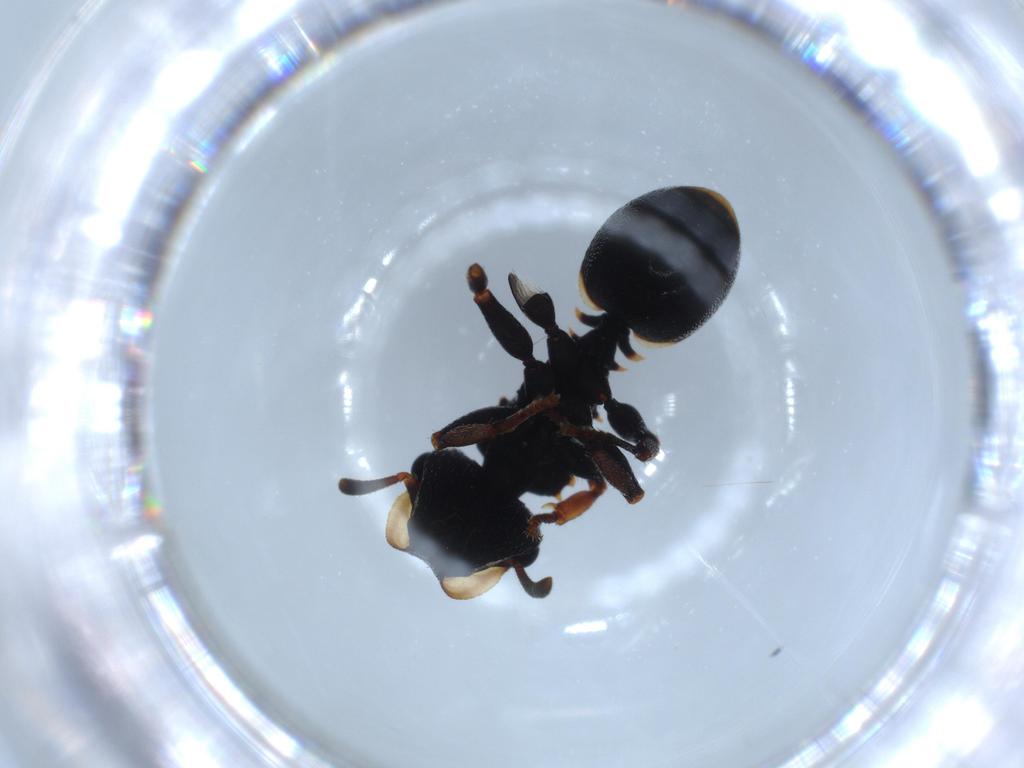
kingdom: Animalia
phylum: Arthropoda
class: Insecta
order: Hymenoptera
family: Formicidae
